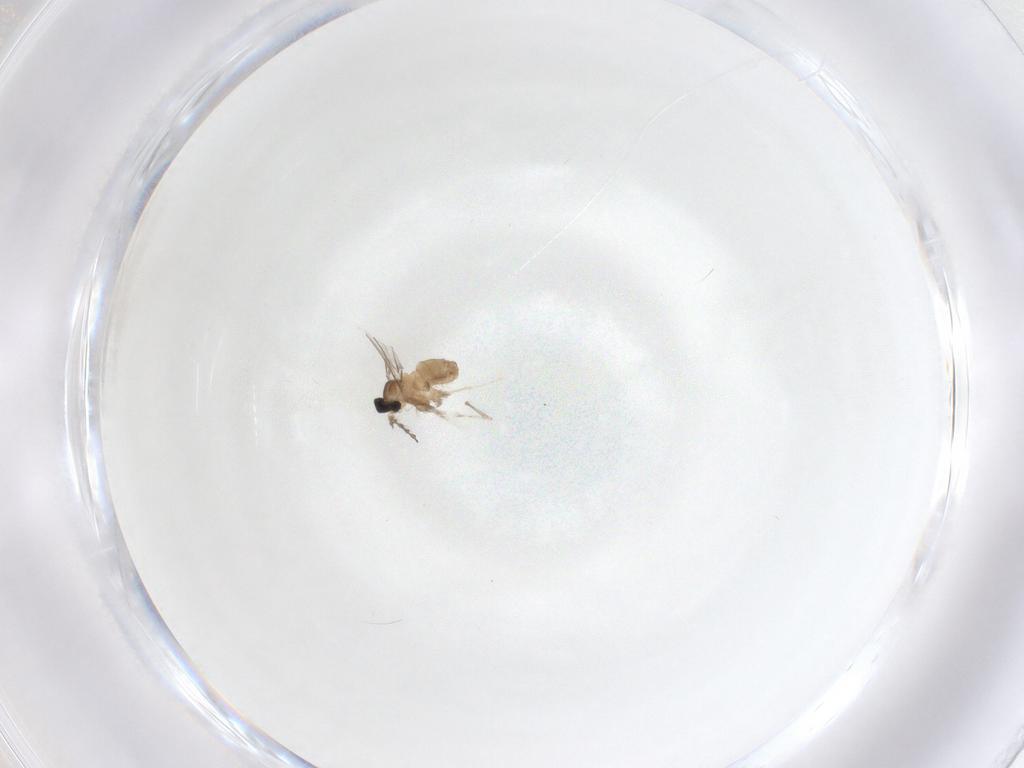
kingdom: Animalia
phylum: Arthropoda
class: Insecta
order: Diptera
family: Cecidomyiidae
